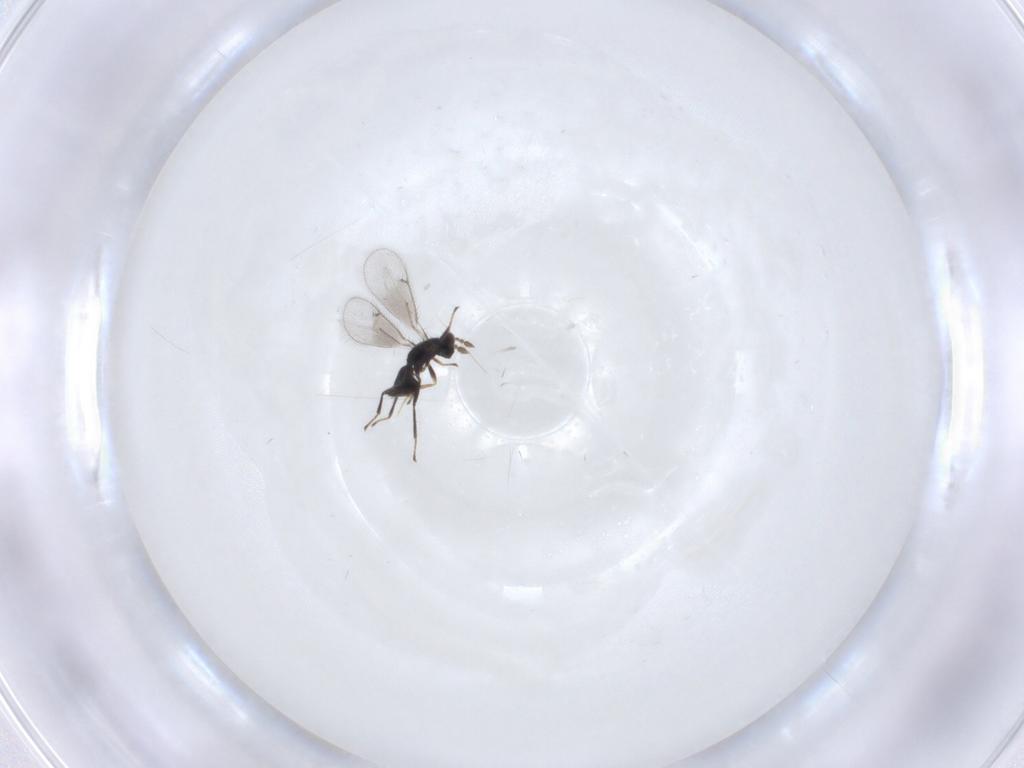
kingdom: Animalia
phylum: Arthropoda
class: Insecta
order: Hymenoptera
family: Eulophidae
